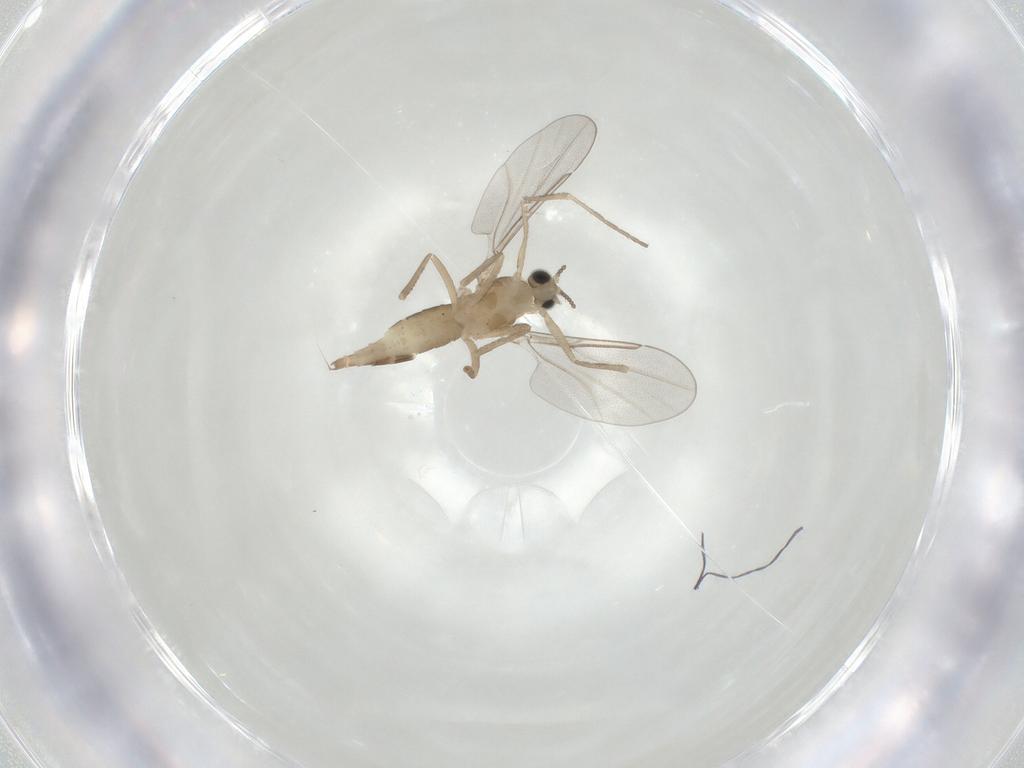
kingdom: Animalia
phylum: Arthropoda
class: Insecta
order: Diptera
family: Cecidomyiidae
